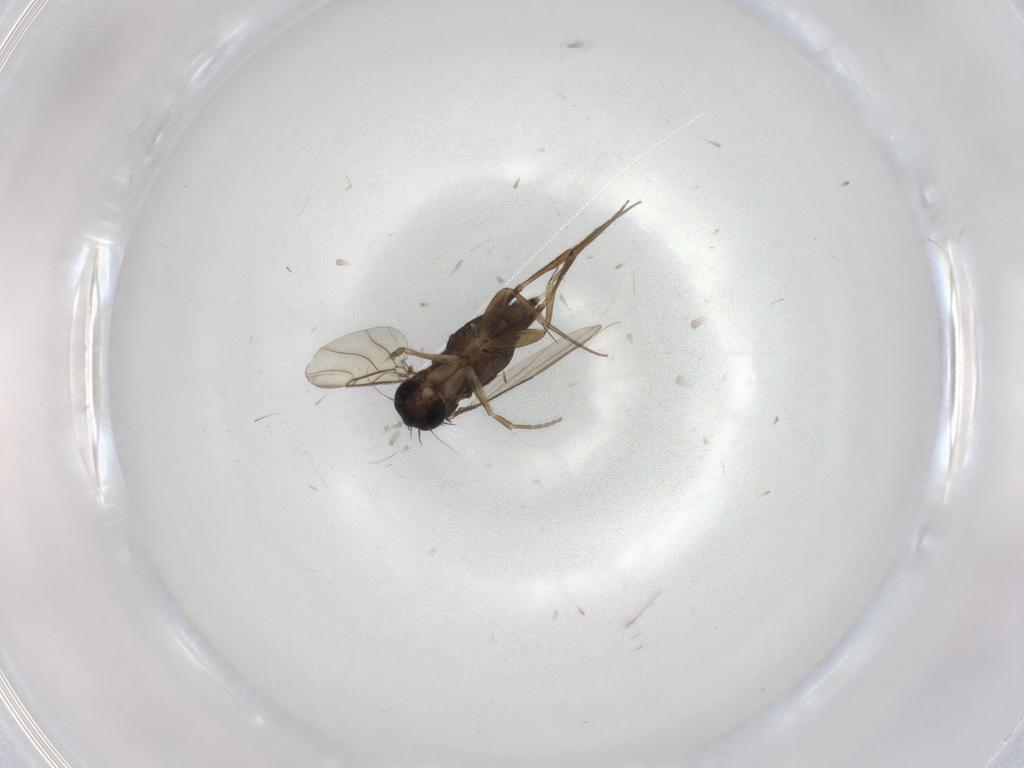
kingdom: Animalia
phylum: Arthropoda
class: Insecta
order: Diptera
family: Phoridae
